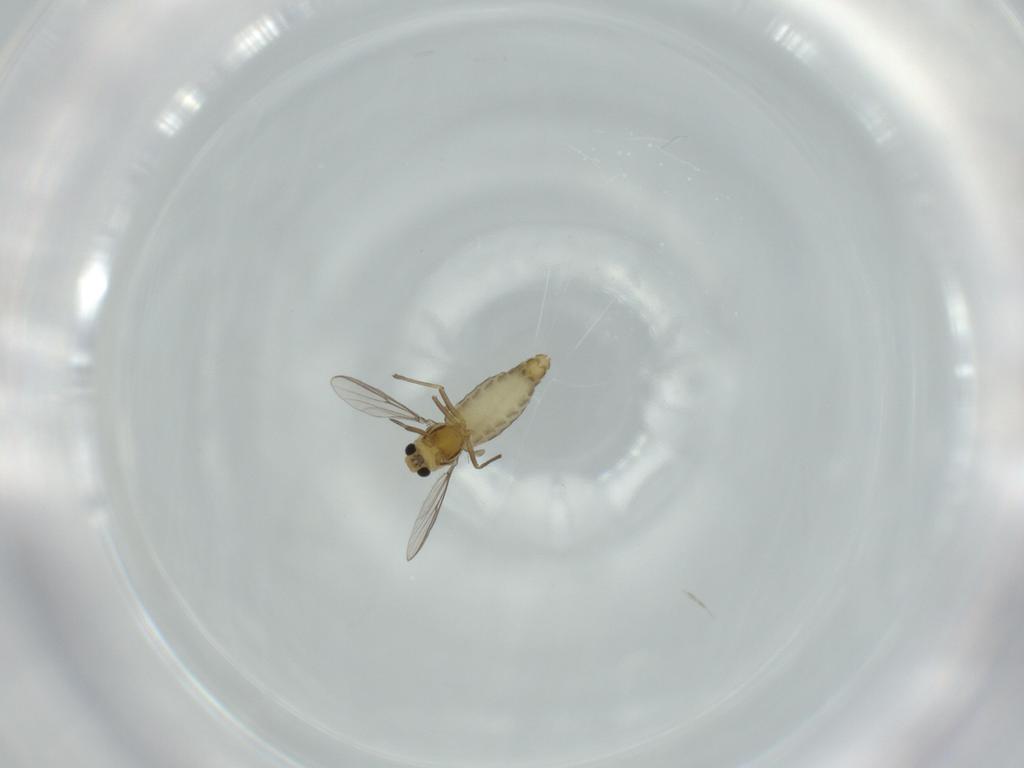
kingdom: Animalia
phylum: Arthropoda
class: Insecta
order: Diptera
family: Chironomidae
